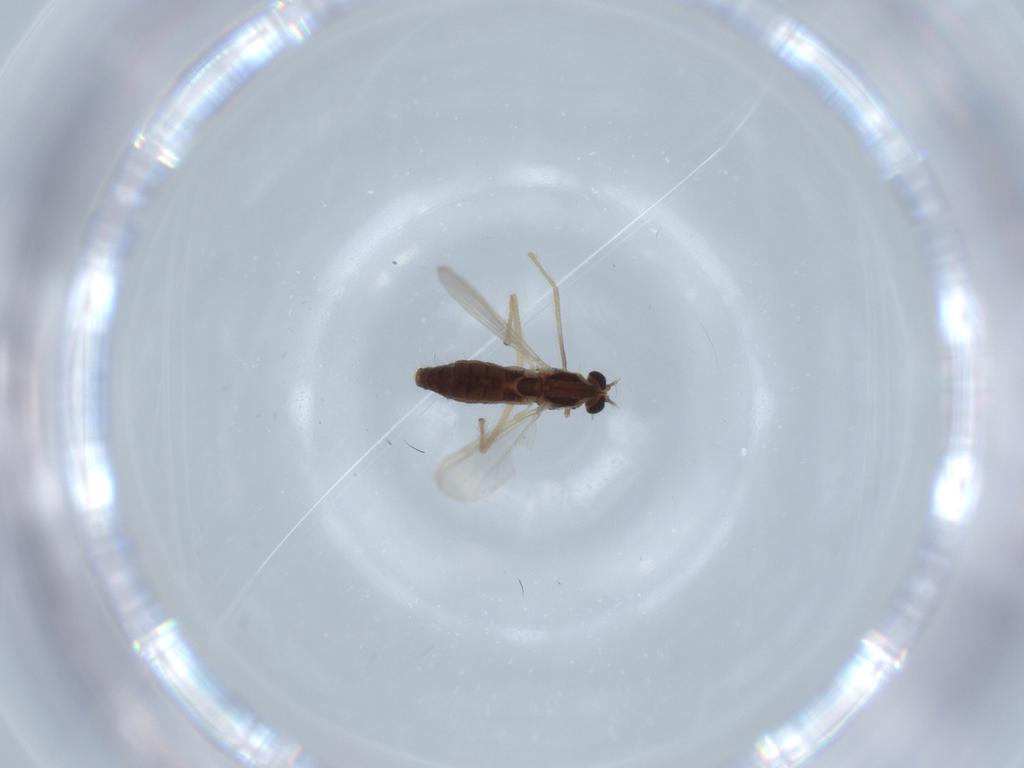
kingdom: Animalia
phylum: Arthropoda
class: Insecta
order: Diptera
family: Chironomidae
